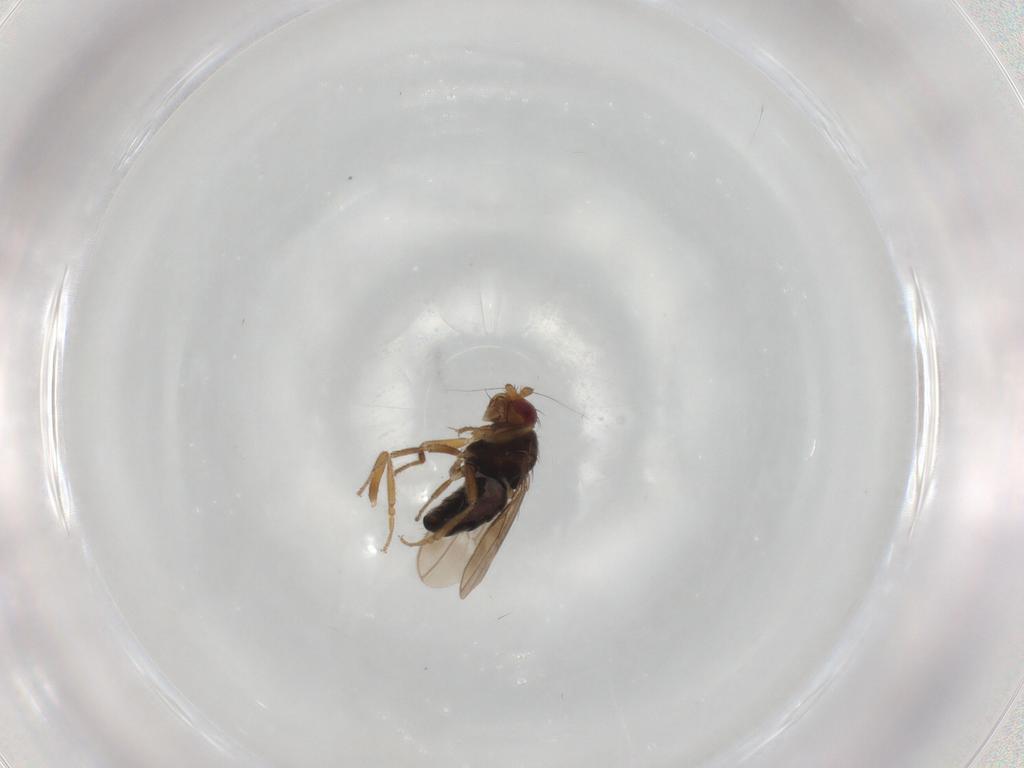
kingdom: Animalia
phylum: Arthropoda
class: Insecta
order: Diptera
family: Sphaeroceridae
